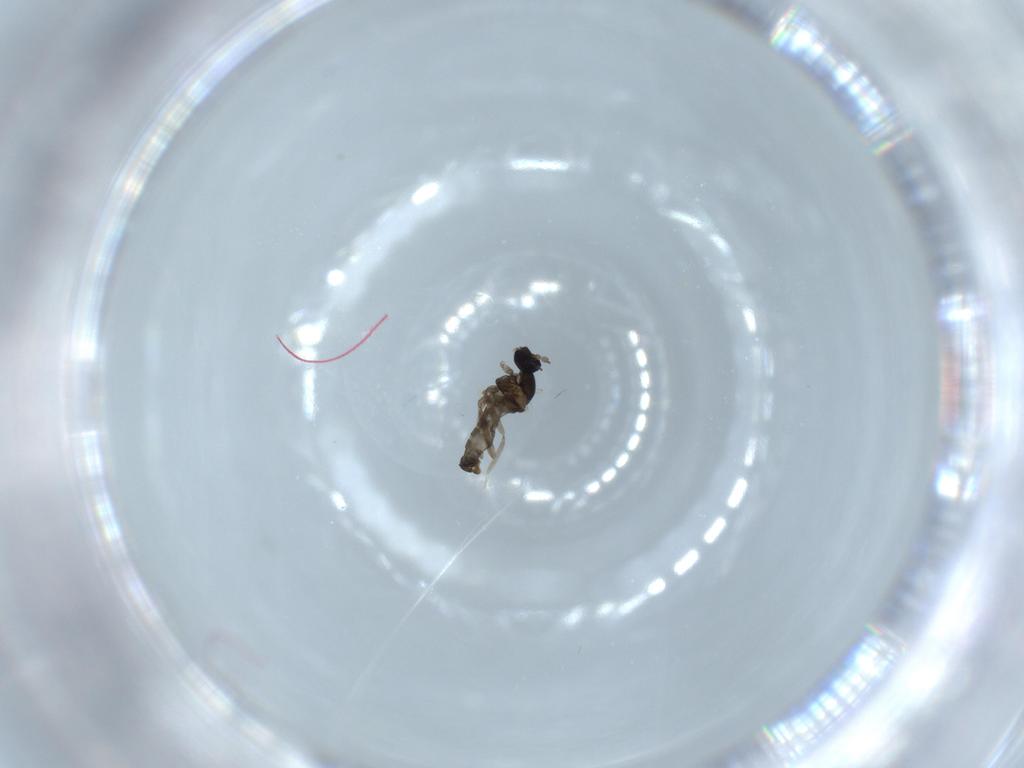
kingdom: Animalia
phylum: Arthropoda
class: Insecta
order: Diptera
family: Cecidomyiidae
